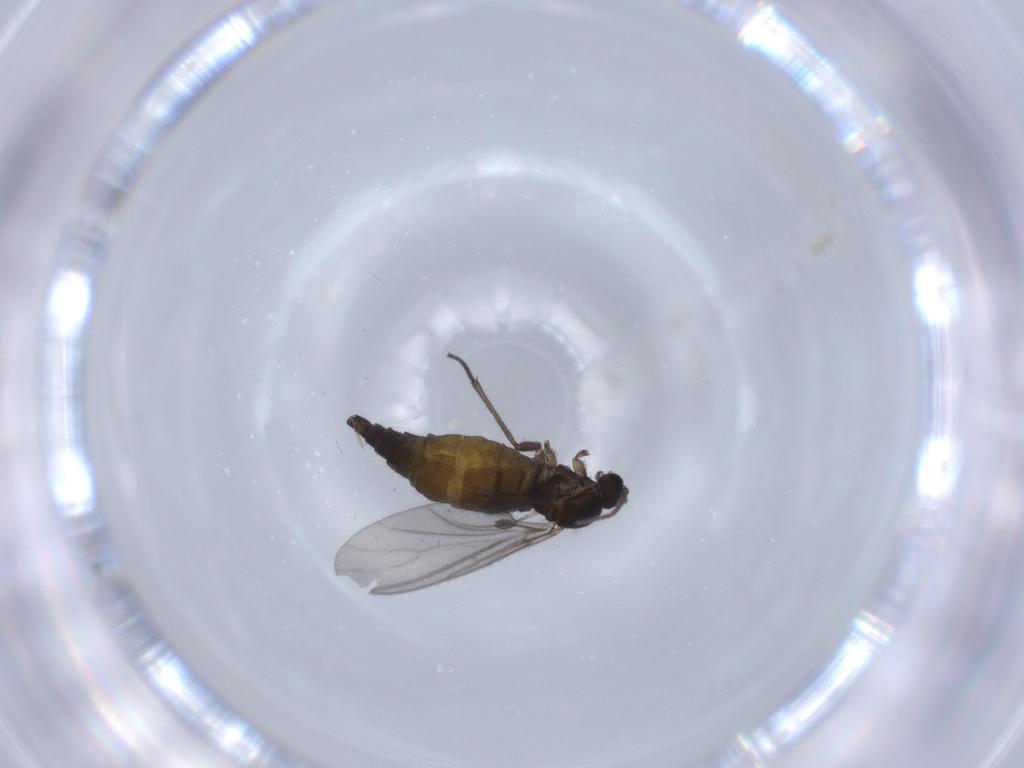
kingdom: Animalia
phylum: Arthropoda
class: Insecta
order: Diptera
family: Sciaridae
